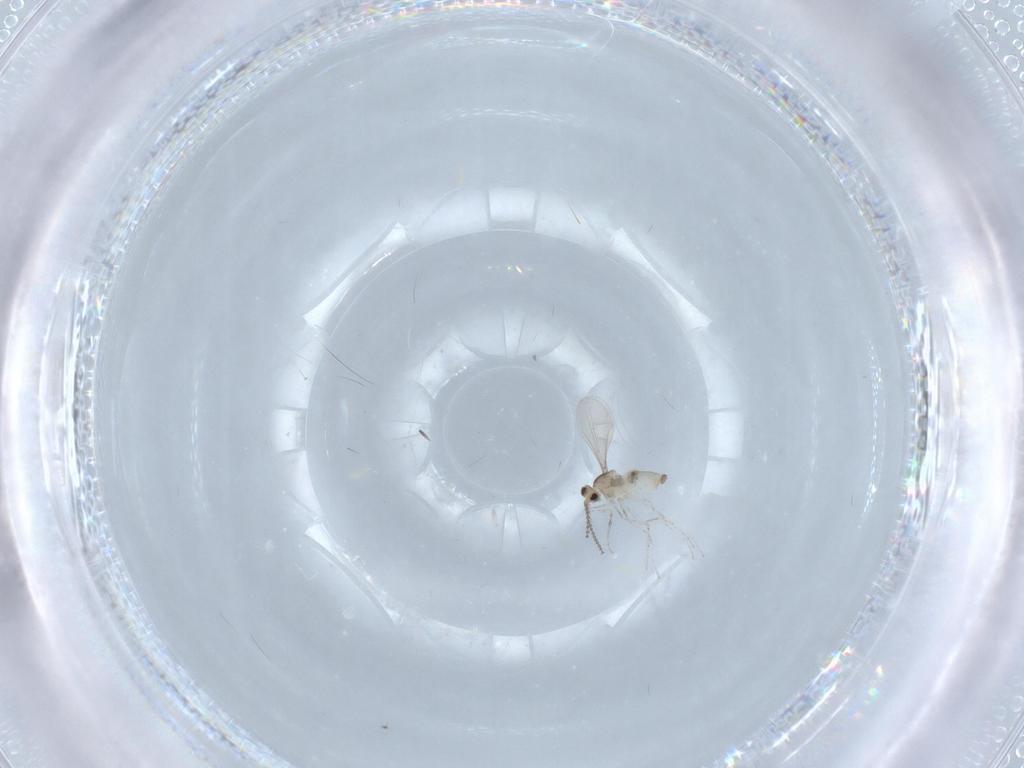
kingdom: Animalia
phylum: Arthropoda
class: Insecta
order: Diptera
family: Cecidomyiidae
